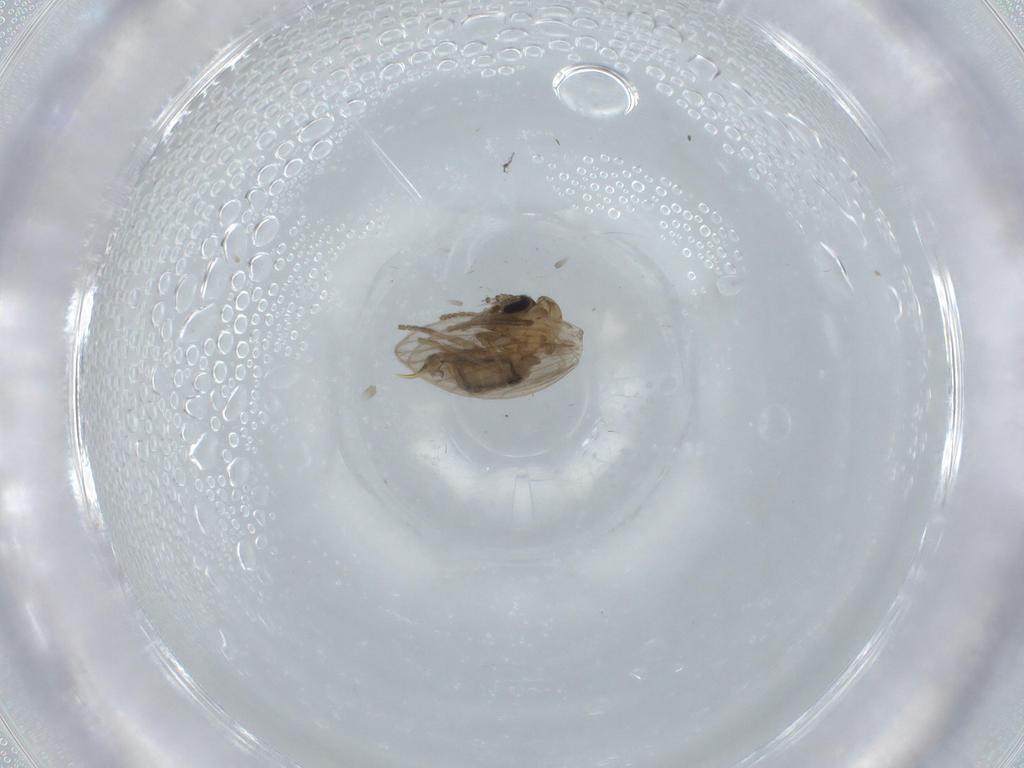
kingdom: Animalia
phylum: Arthropoda
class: Insecta
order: Diptera
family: Psychodidae
